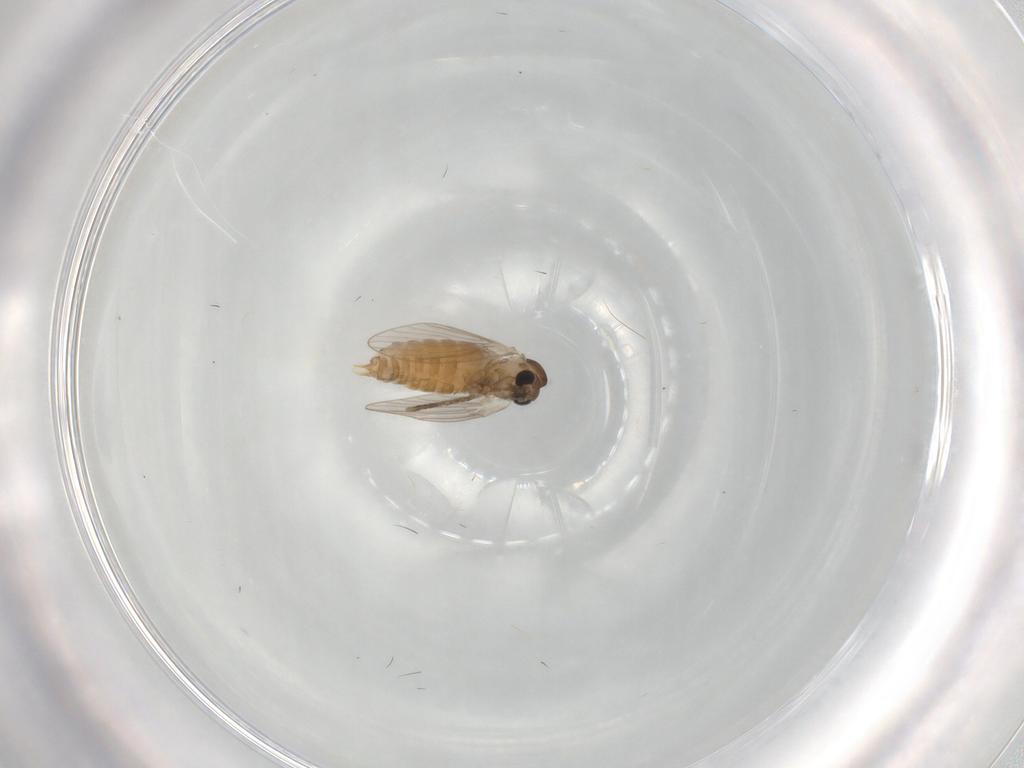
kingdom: Animalia
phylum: Arthropoda
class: Insecta
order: Diptera
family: Psychodidae
